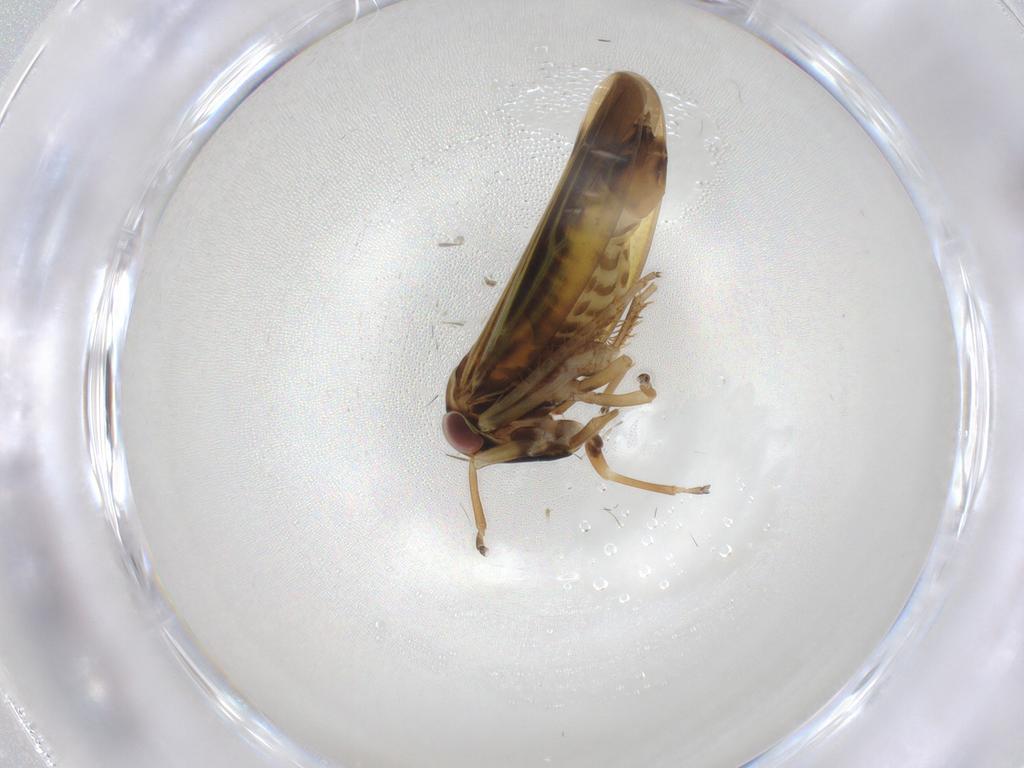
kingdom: Animalia
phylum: Arthropoda
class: Insecta
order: Hemiptera
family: Cicadellidae
